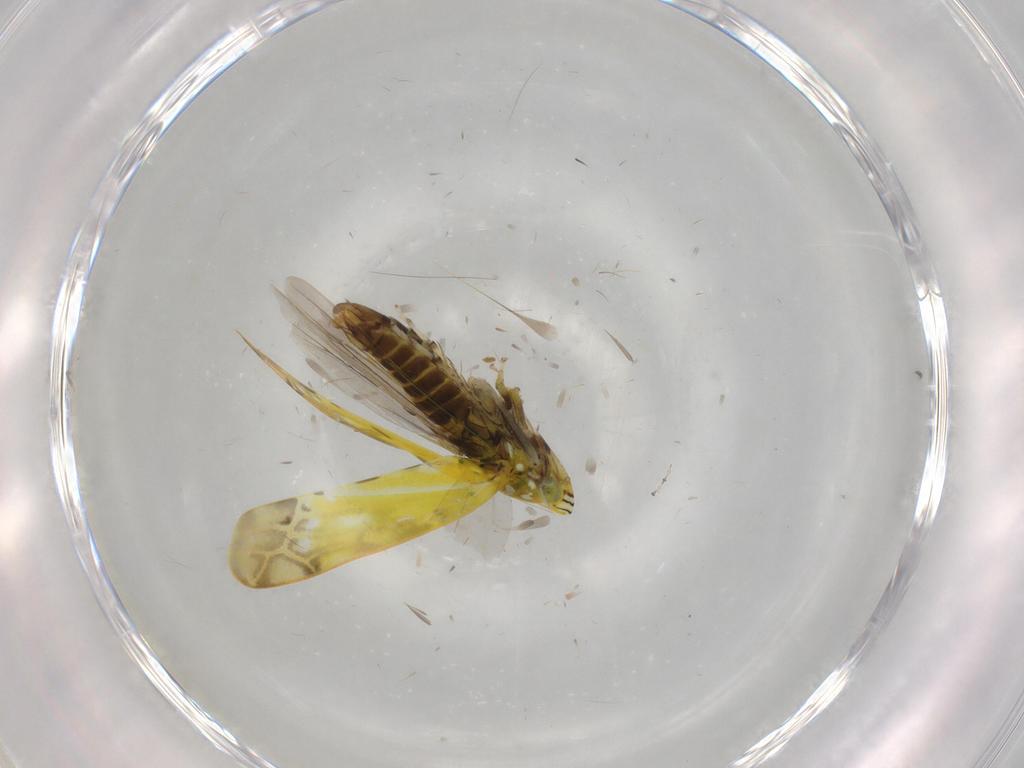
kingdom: Animalia
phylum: Arthropoda
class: Insecta
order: Hemiptera
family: Cicadellidae
